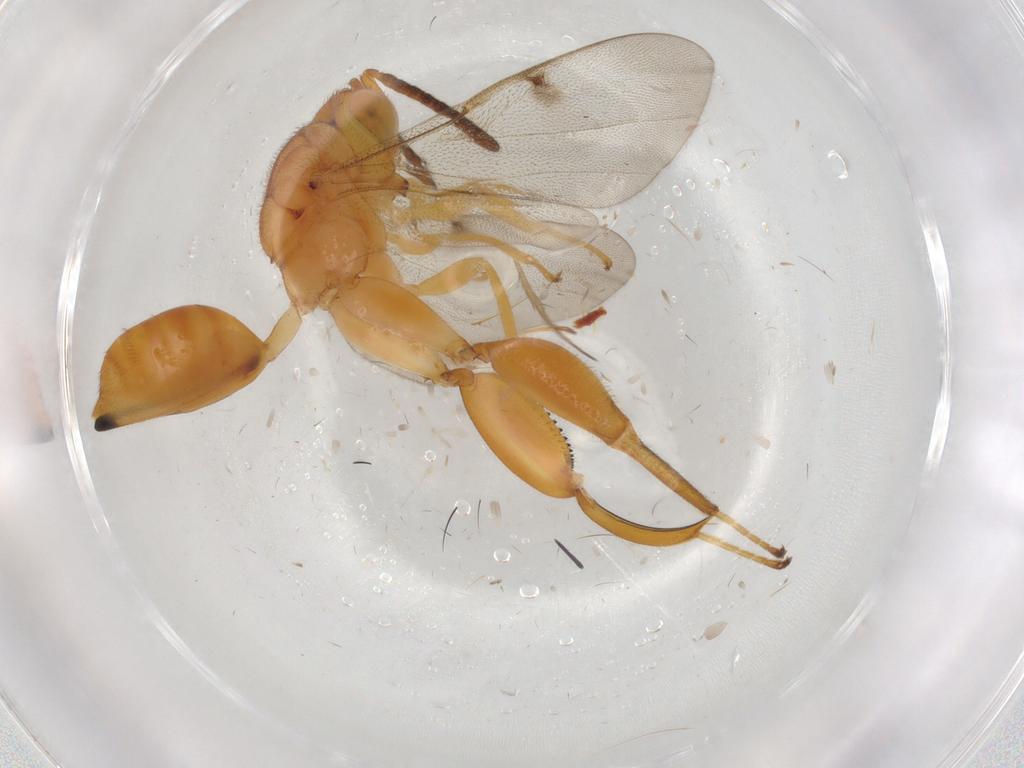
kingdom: Animalia
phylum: Arthropoda
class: Insecta
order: Hymenoptera
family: Chalcididae
